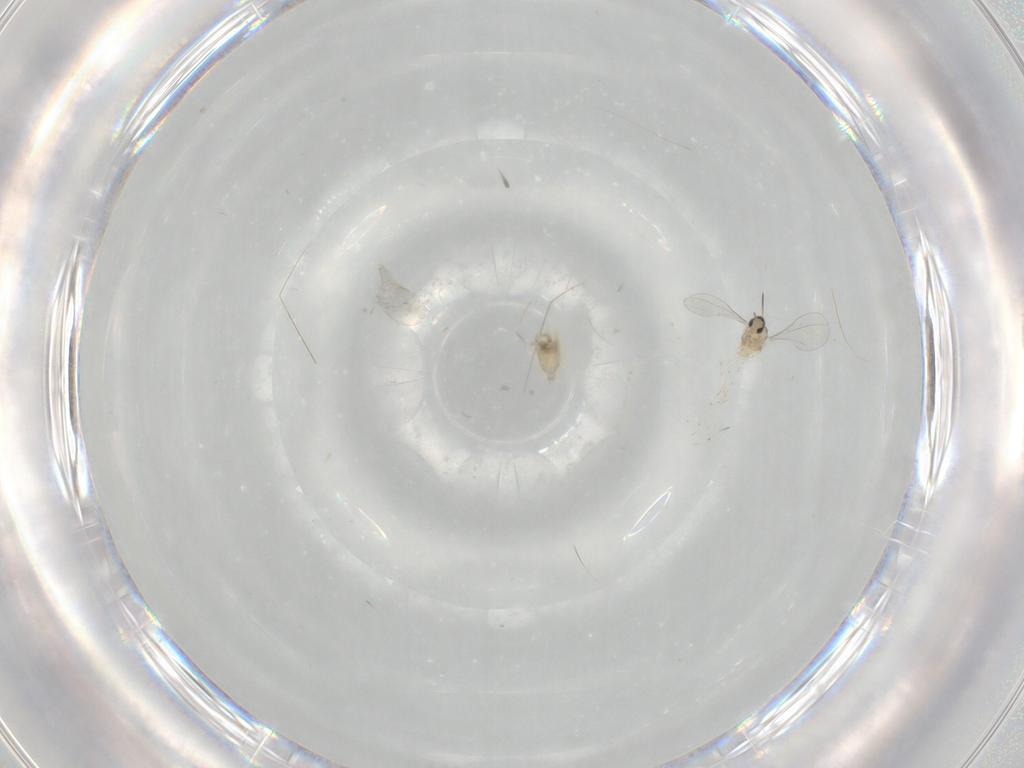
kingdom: Animalia
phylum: Arthropoda
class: Insecta
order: Diptera
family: Cecidomyiidae
